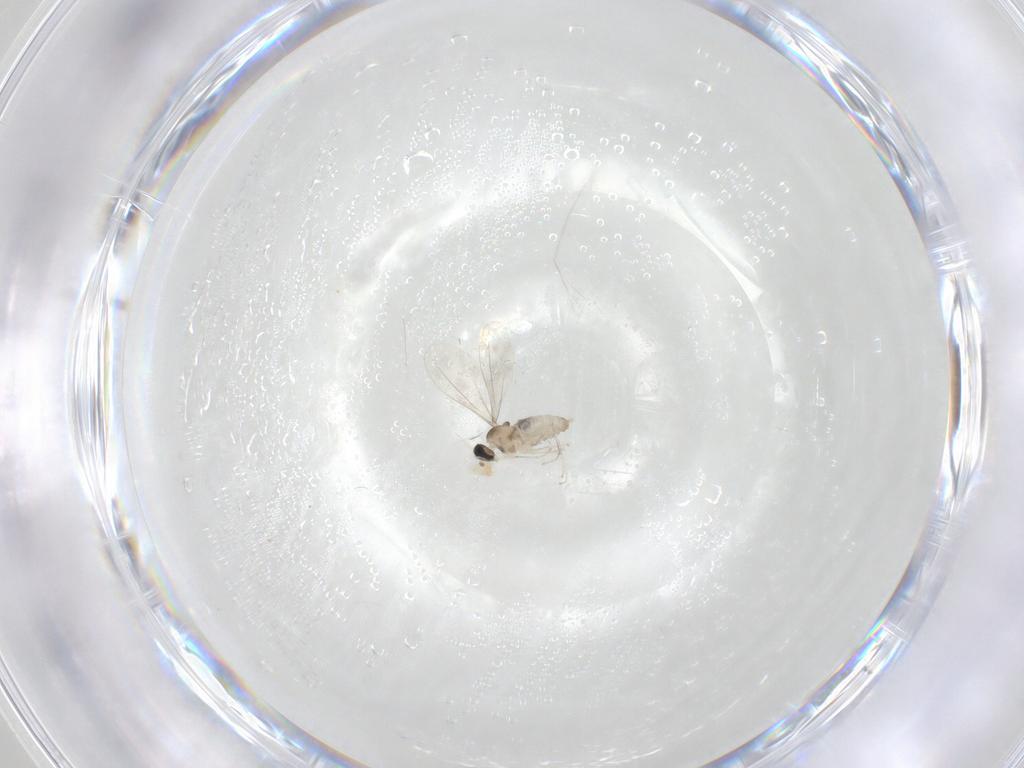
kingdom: Animalia
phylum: Arthropoda
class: Insecta
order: Diptera
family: Cecidomyiidae
